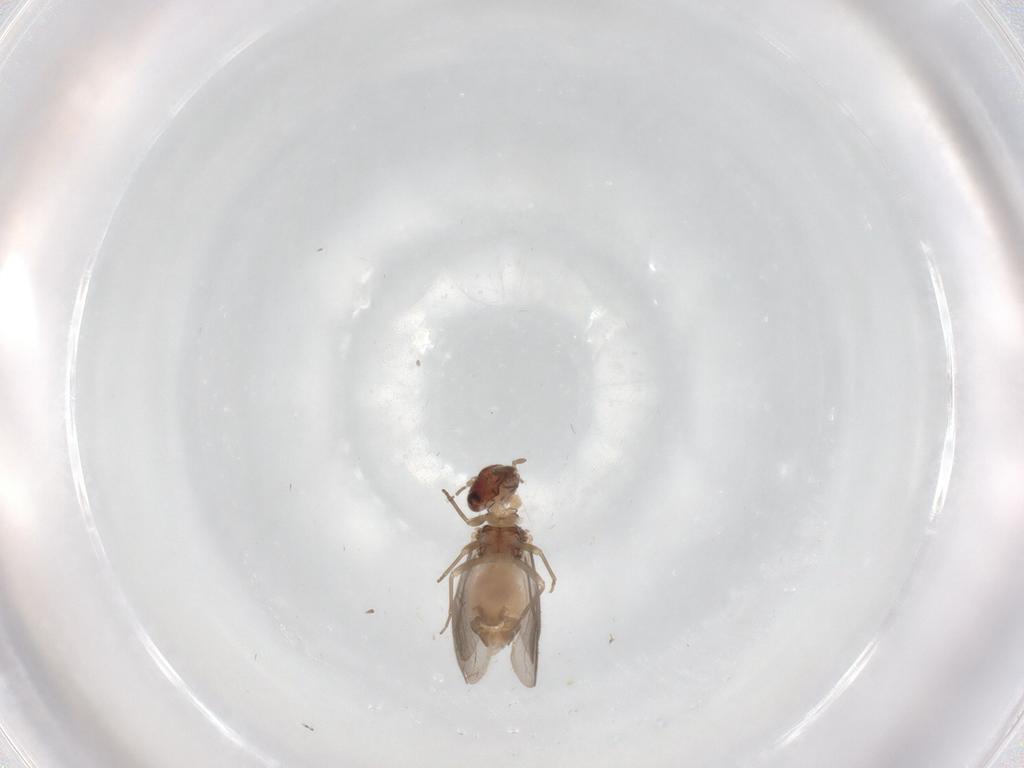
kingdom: Animalia
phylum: Arthropoda
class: Insecta
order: Psocodea
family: Archipsocidae
